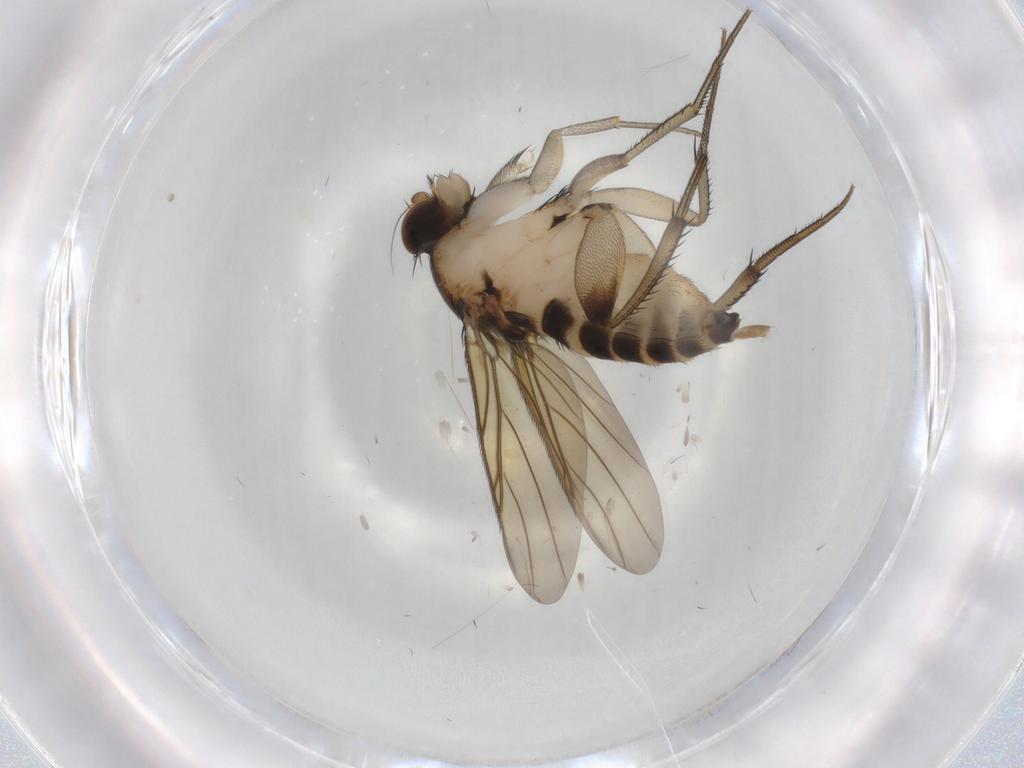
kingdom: Animalia
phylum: Arthropoda
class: Insecta
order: Diptera
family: Phoridae
